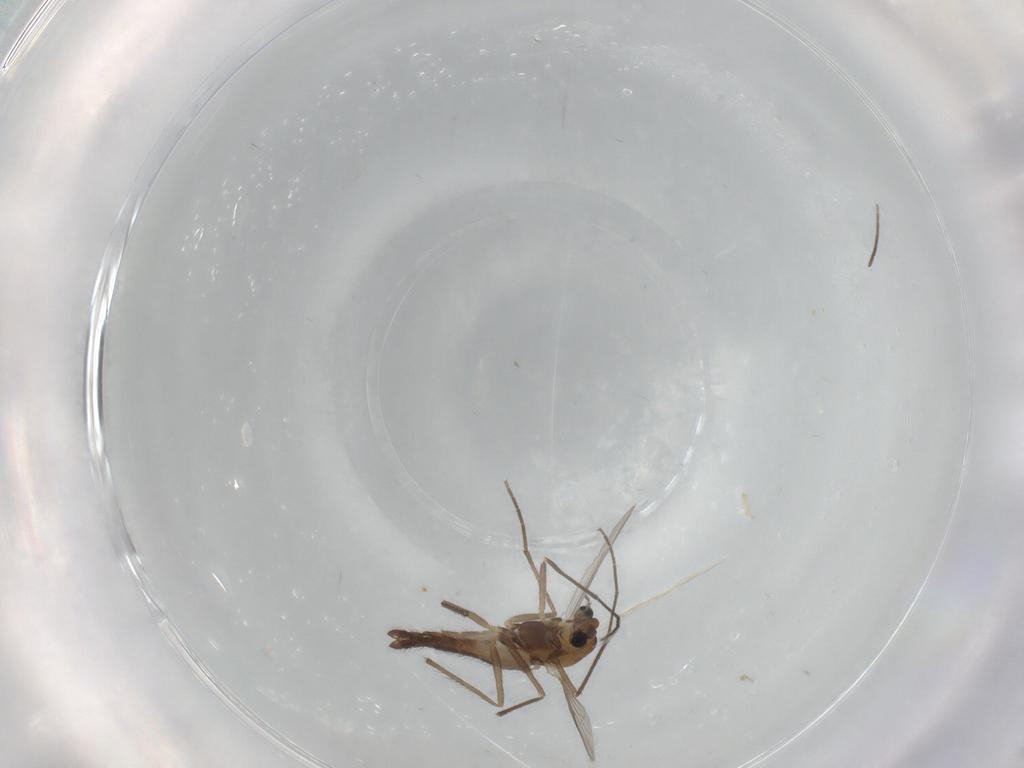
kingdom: Animalia
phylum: Arthropoda
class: Insecta
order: Diptera
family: Chironomidae
